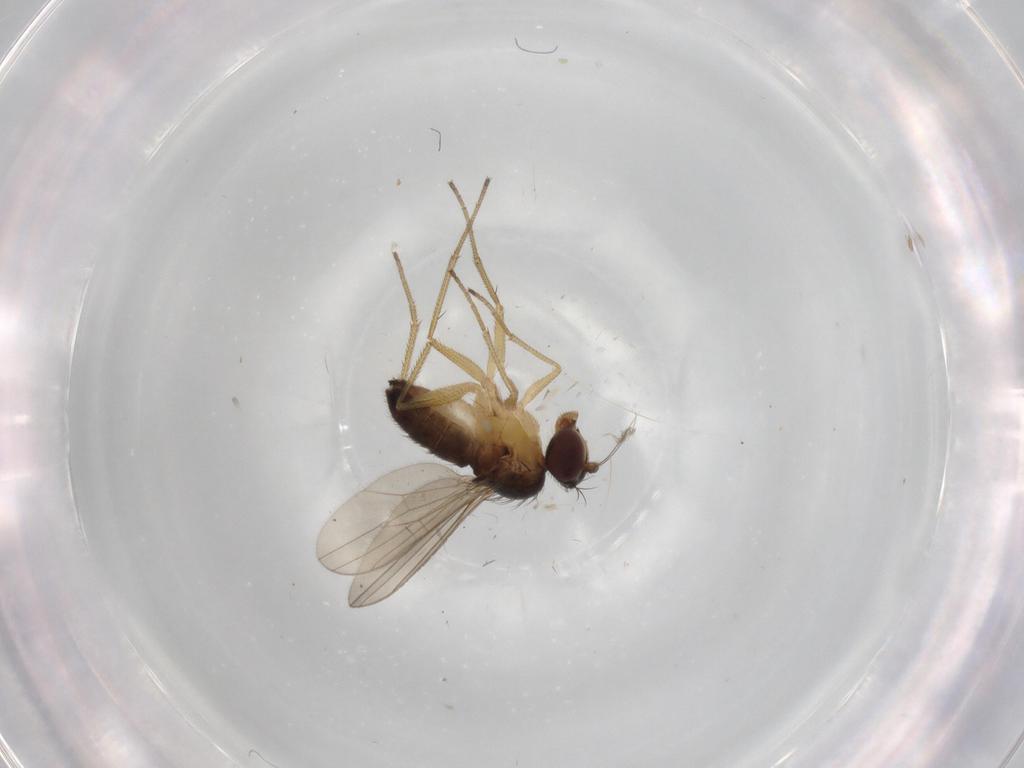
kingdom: Animalia
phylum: Arthropoda
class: Insecta
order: Diptera
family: Dolichopodidae
